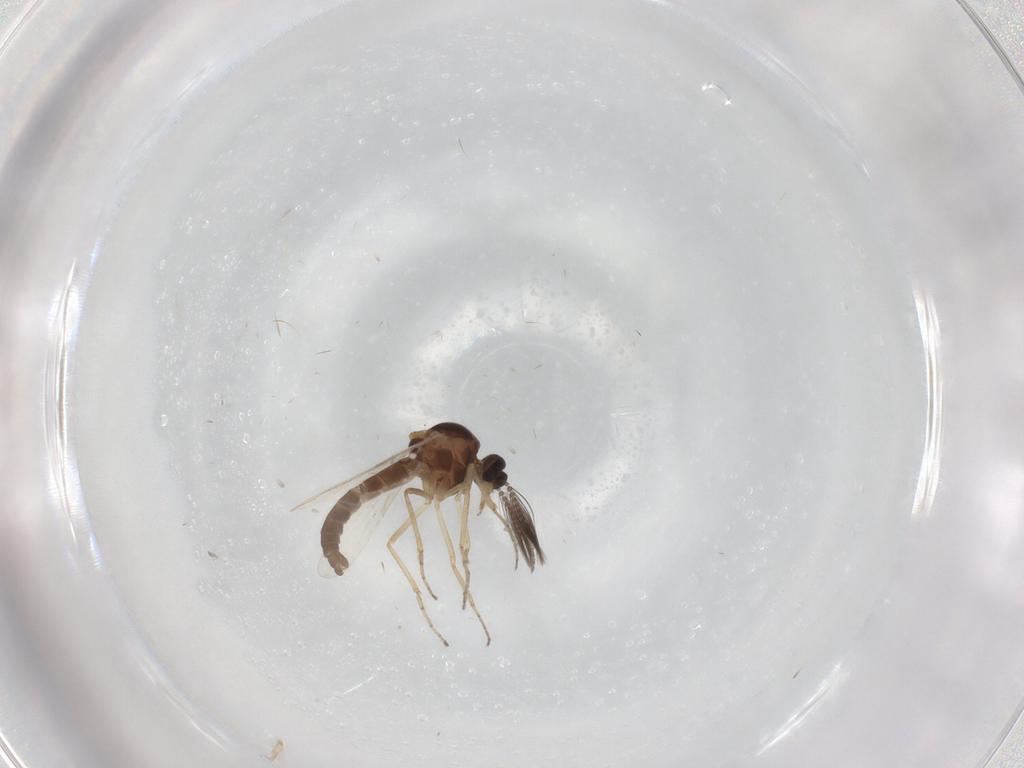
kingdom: Animalia
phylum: Arthropoda
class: Insecta
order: Diptera
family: Ceratopogonidae
